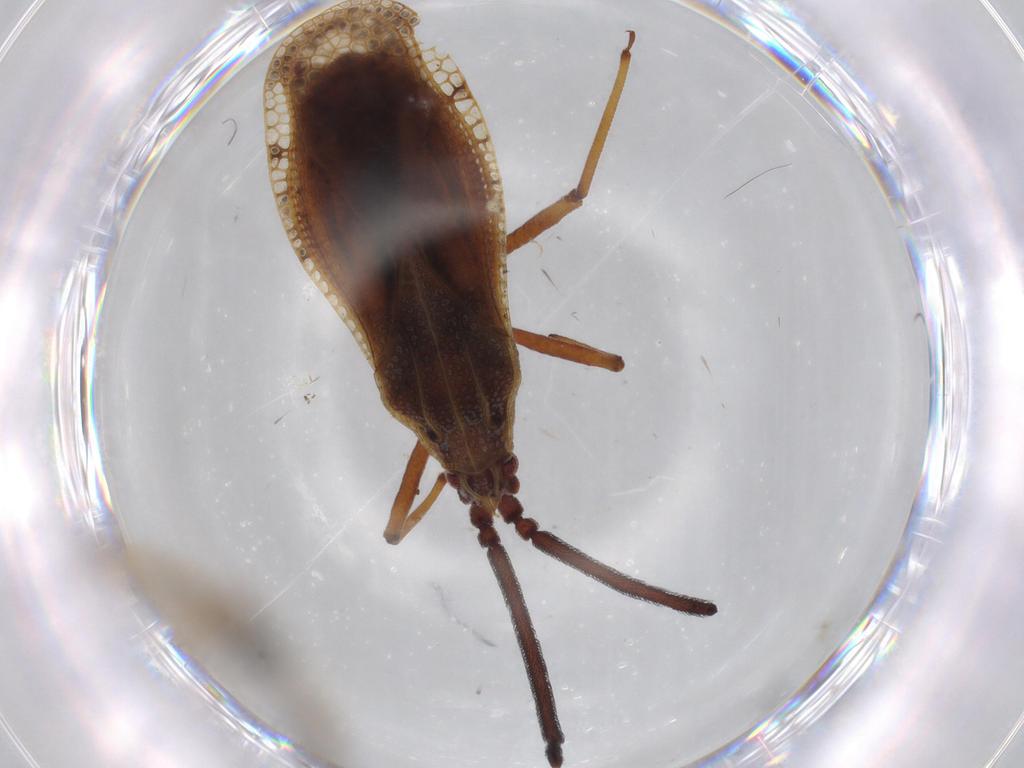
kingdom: Animalia
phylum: Arthropoda
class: Insecta
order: Hemiptera
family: Tingidae
